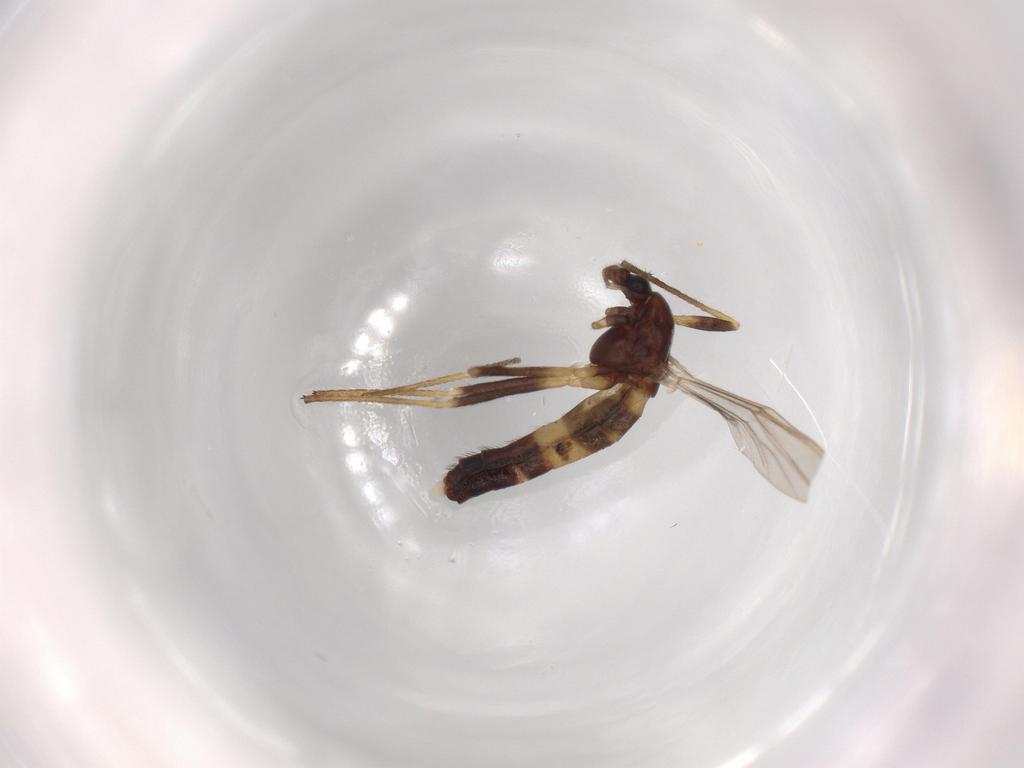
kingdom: Animalia
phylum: Arthropoda
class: Insecta
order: Diptera
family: Chironomidae
